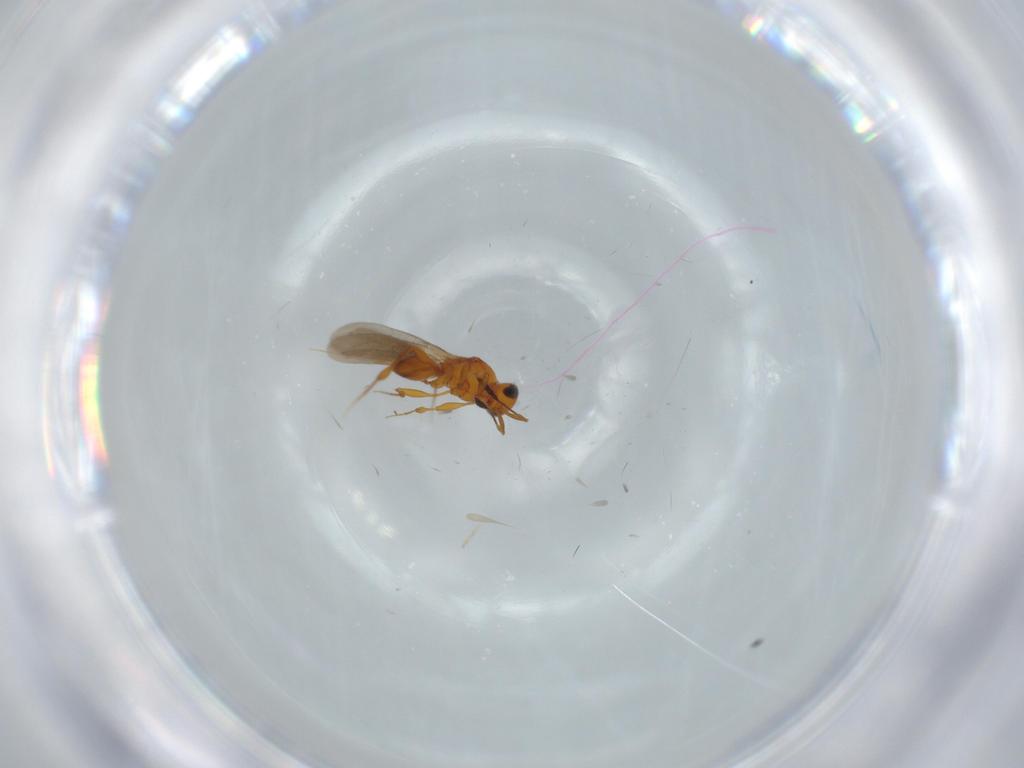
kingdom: Animalia
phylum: Arthropoda
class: Insecta
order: Hymenoptera
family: Platygastridae
